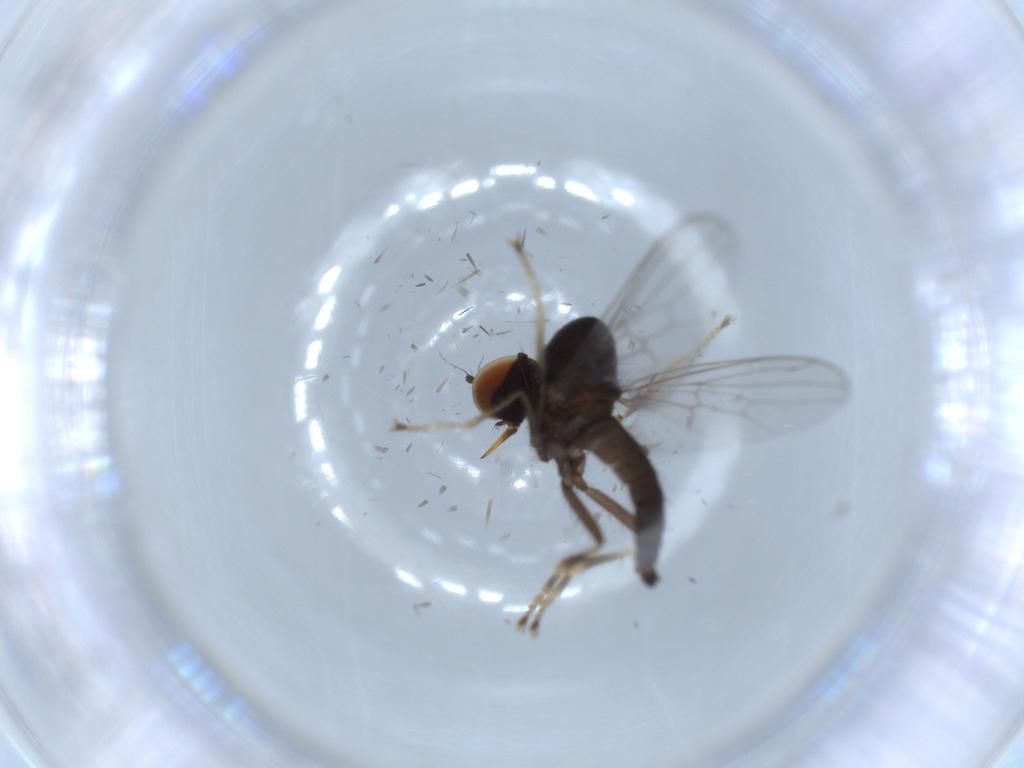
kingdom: Animalia
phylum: Arthropoda
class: Insecta
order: Diptera
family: Hybotidae
